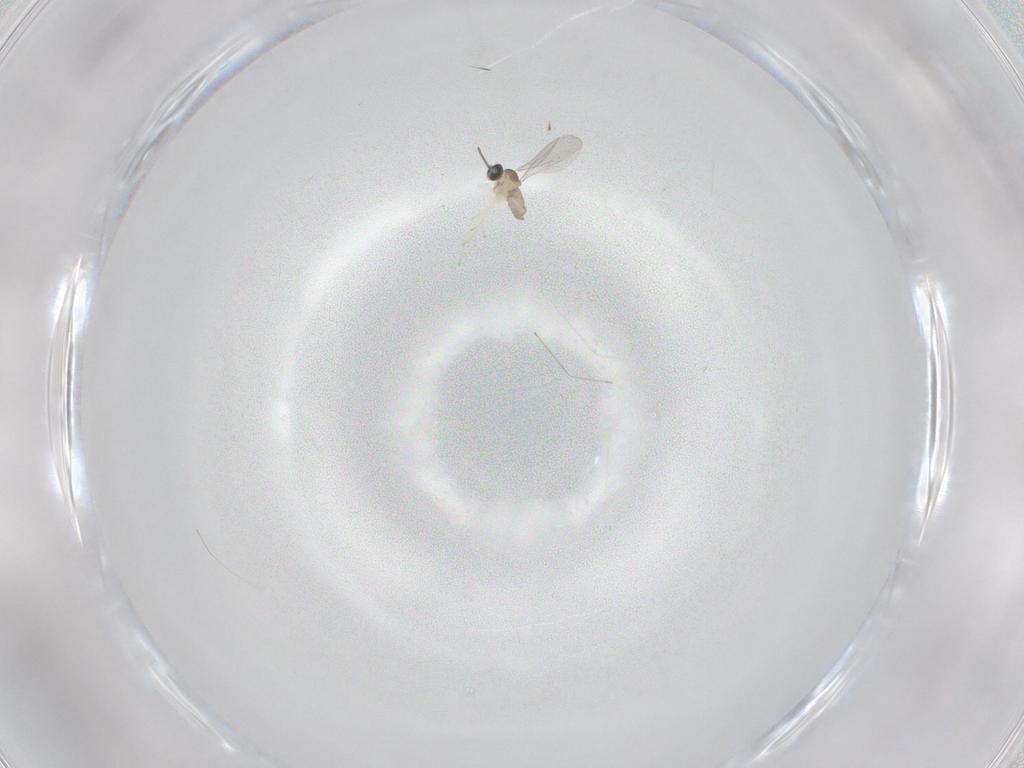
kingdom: Animalia
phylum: Arthropoda
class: Insecta
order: Diptera
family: Cecidomyiidae
